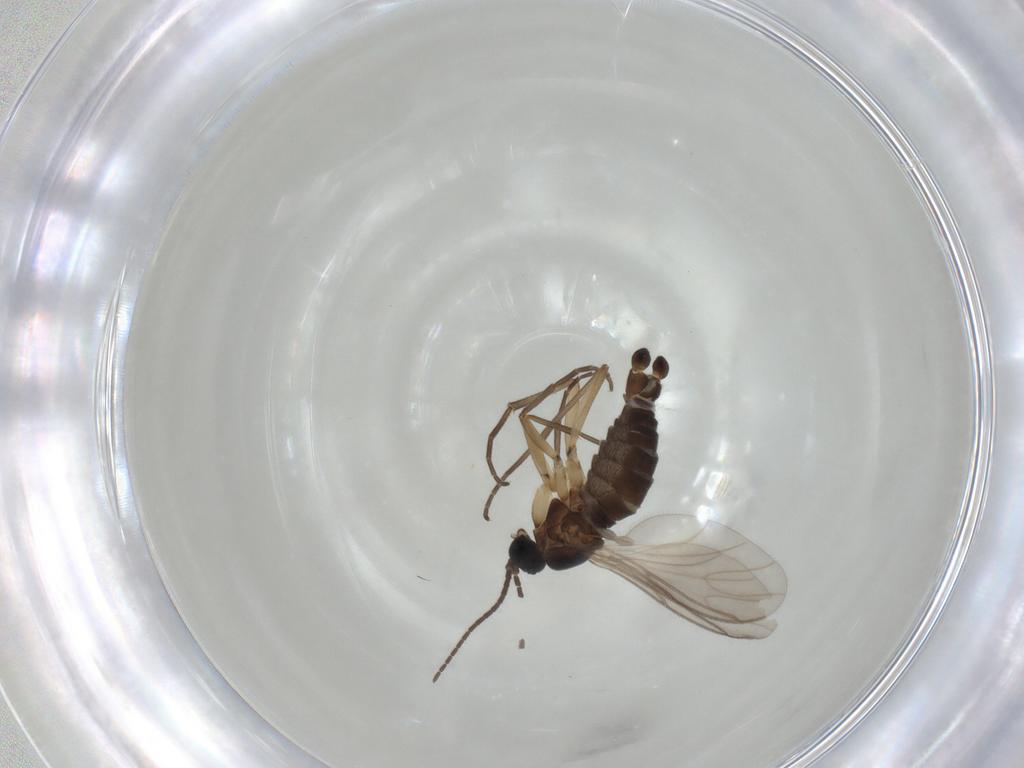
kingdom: Animalia
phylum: Arthropoda
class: Insecta
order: Diptera
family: Sciaridae
